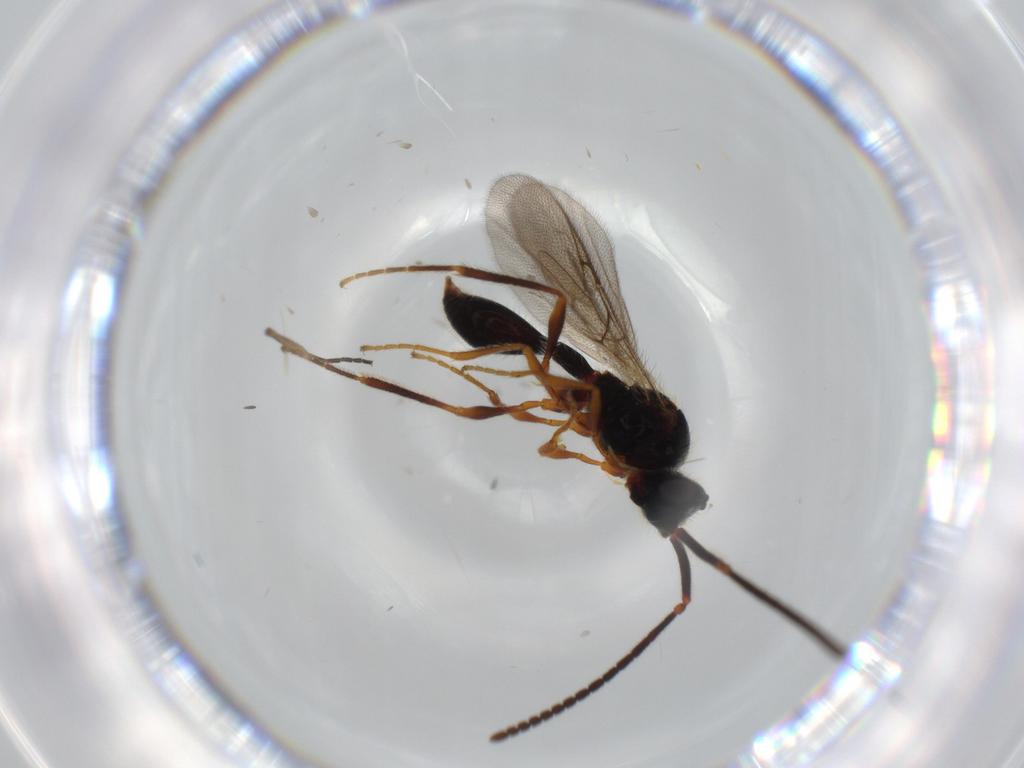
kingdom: Animalia
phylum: Arthropoda
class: Insecta
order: Hymenoptera
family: Diapriidae
